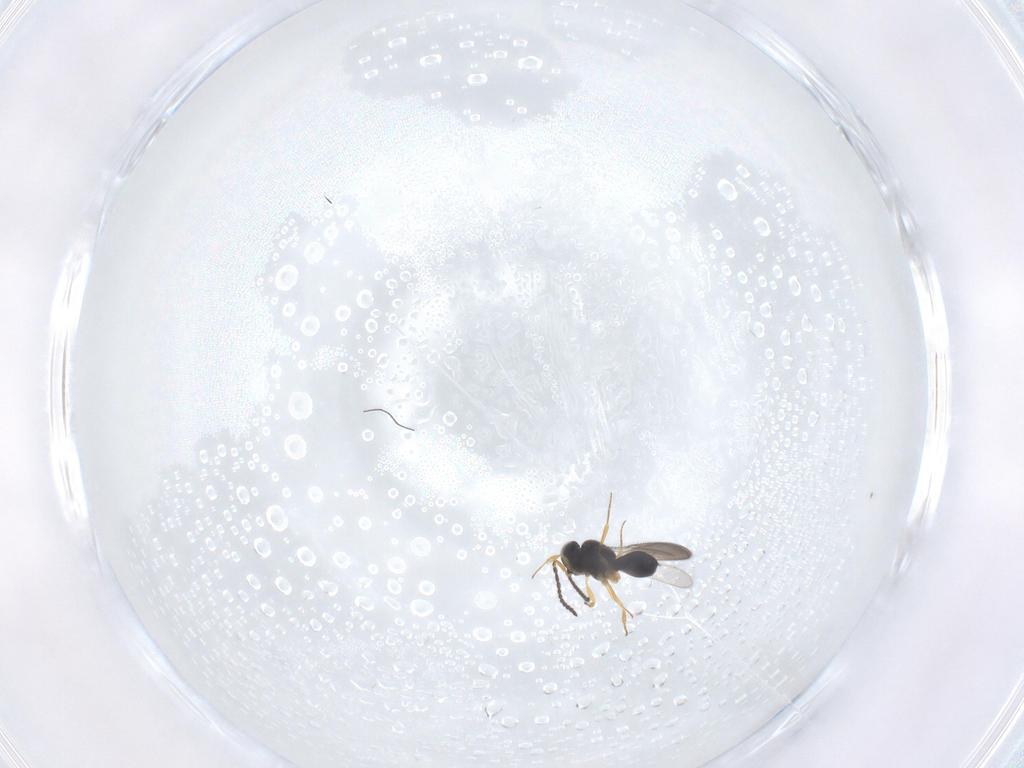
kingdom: Animalia
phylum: Arthropoda
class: Insecta
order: Hymenoptera
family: Scelionidae
